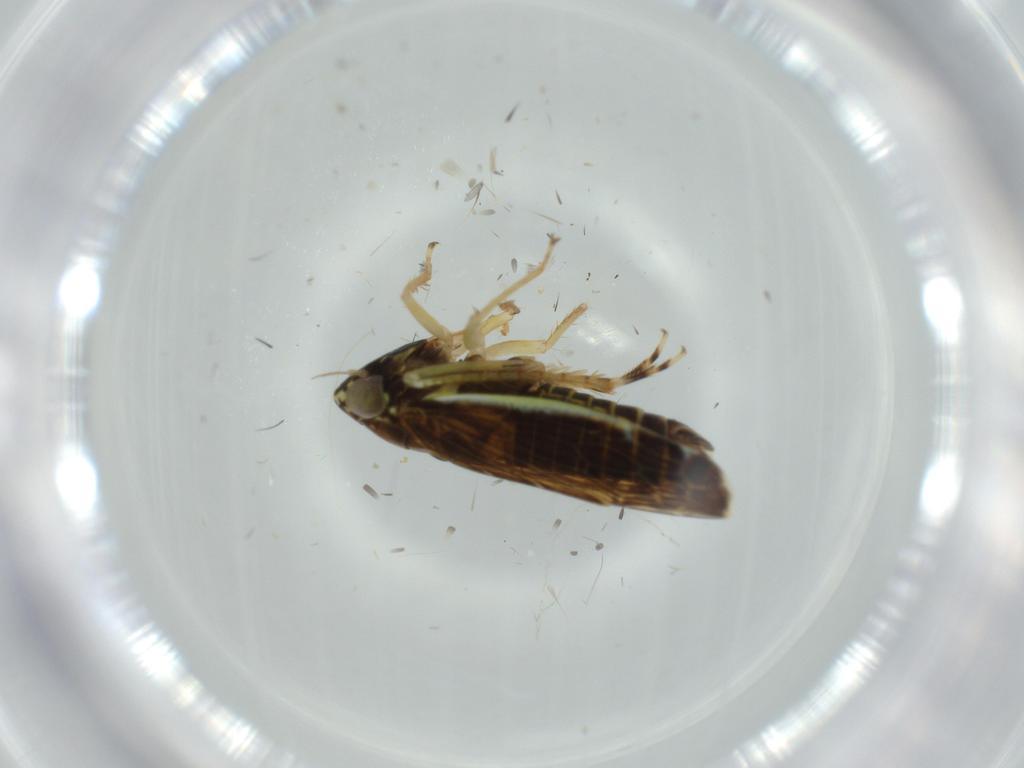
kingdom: Animalia
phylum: Arthropoda
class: Insecta
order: Hemiptera
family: Cicadellidae
